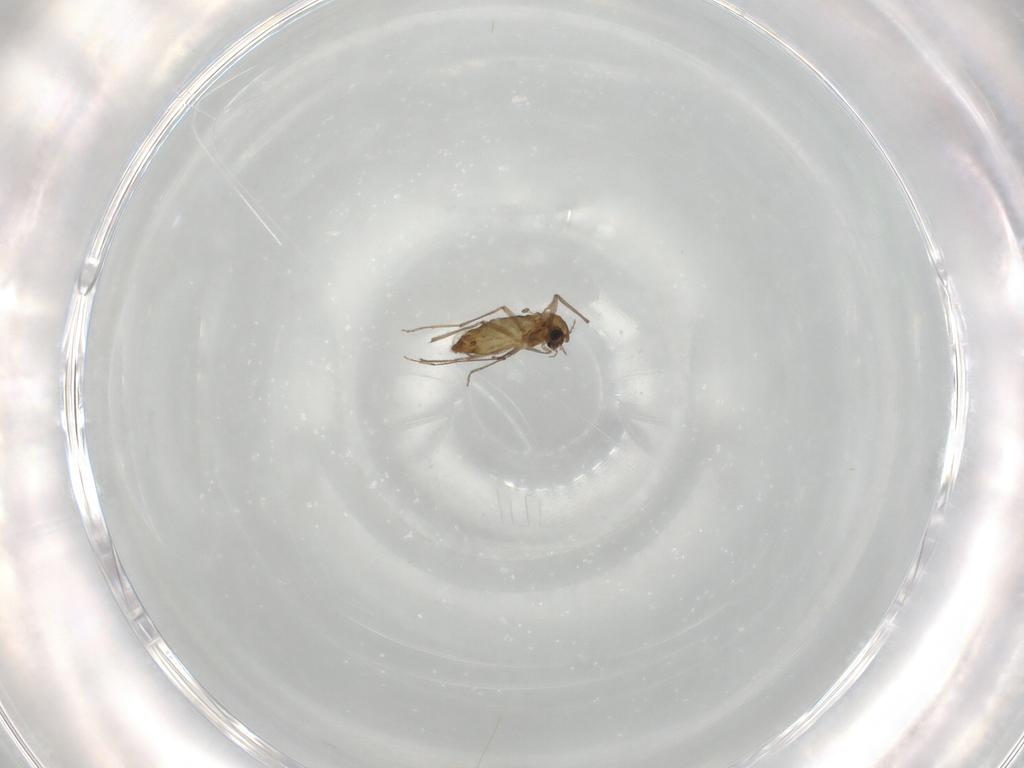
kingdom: Animalia
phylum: Arthropoda
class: Insecta
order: Diptera
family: Chironomidae
